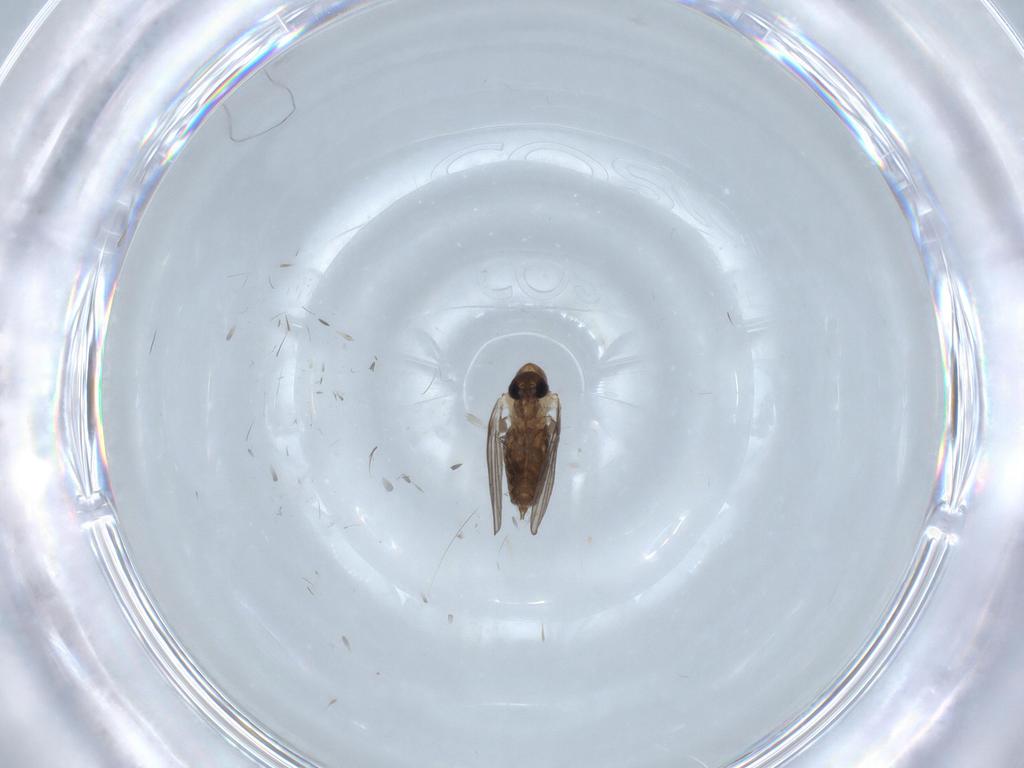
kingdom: Animalia
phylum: Arthropoda
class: Insecta
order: Diptera
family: Psychodidae
